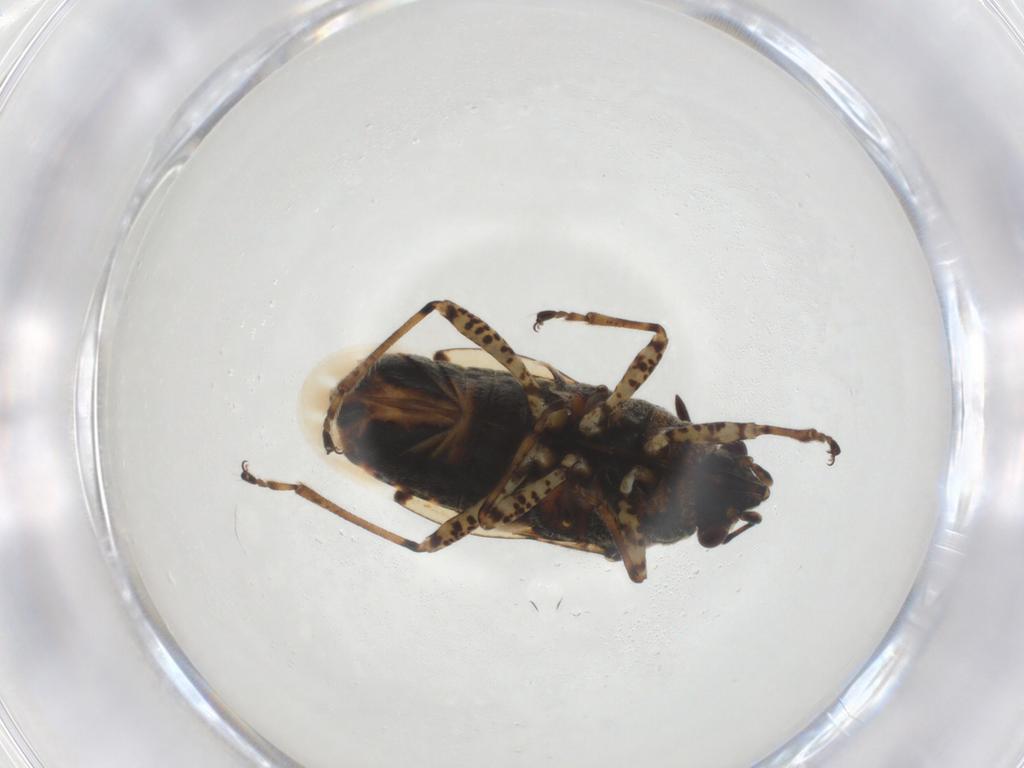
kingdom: Animalia
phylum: Arthropoda
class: Insecta
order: Hemiptera
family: Lygaeidae
